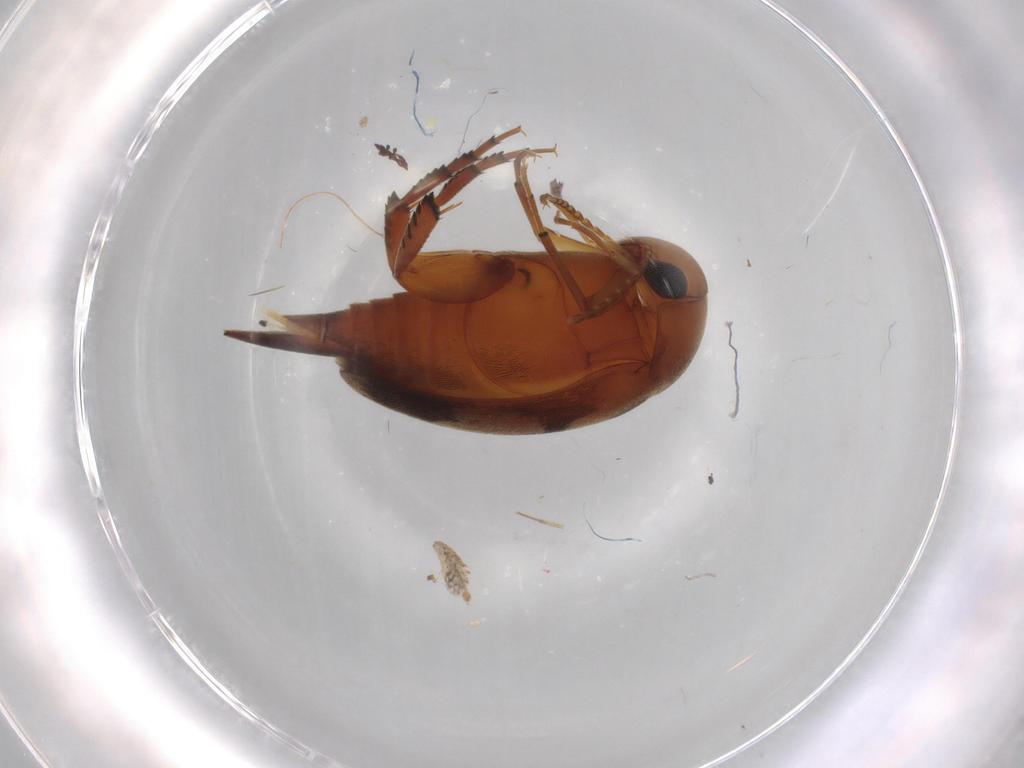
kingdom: Animalia
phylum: Arthropoda
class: Insecta
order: Coleoptera
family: Mordellidae
